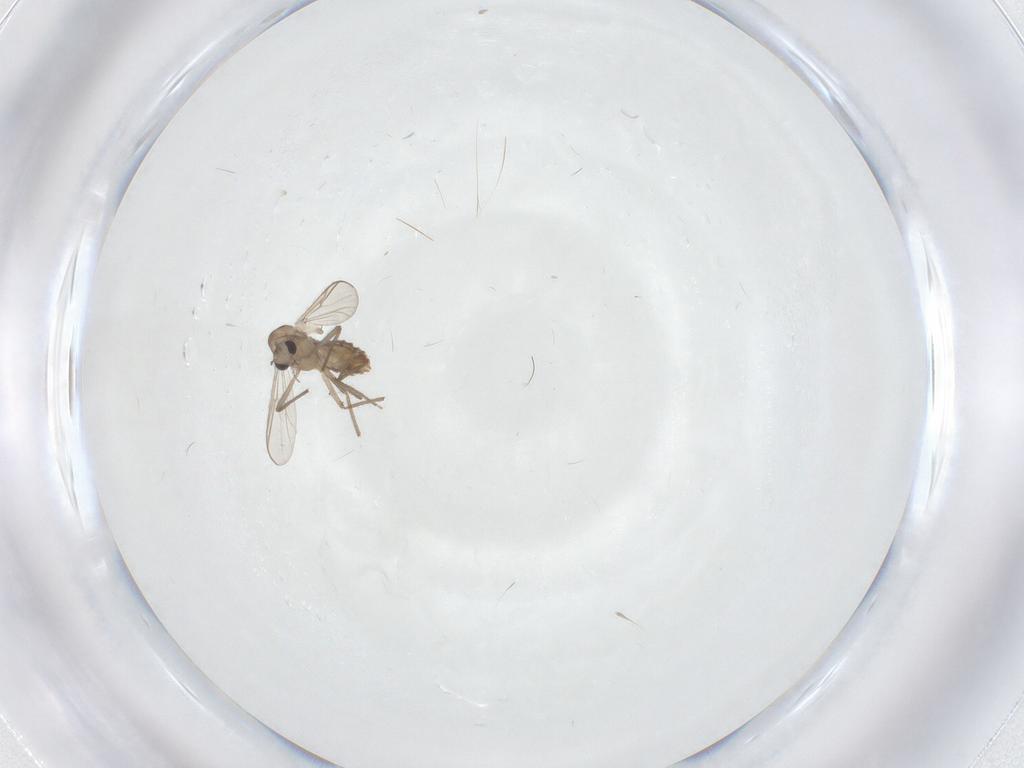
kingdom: Animalia
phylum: Arthropoda
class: Insecta
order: Diptera
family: Chironomidae
